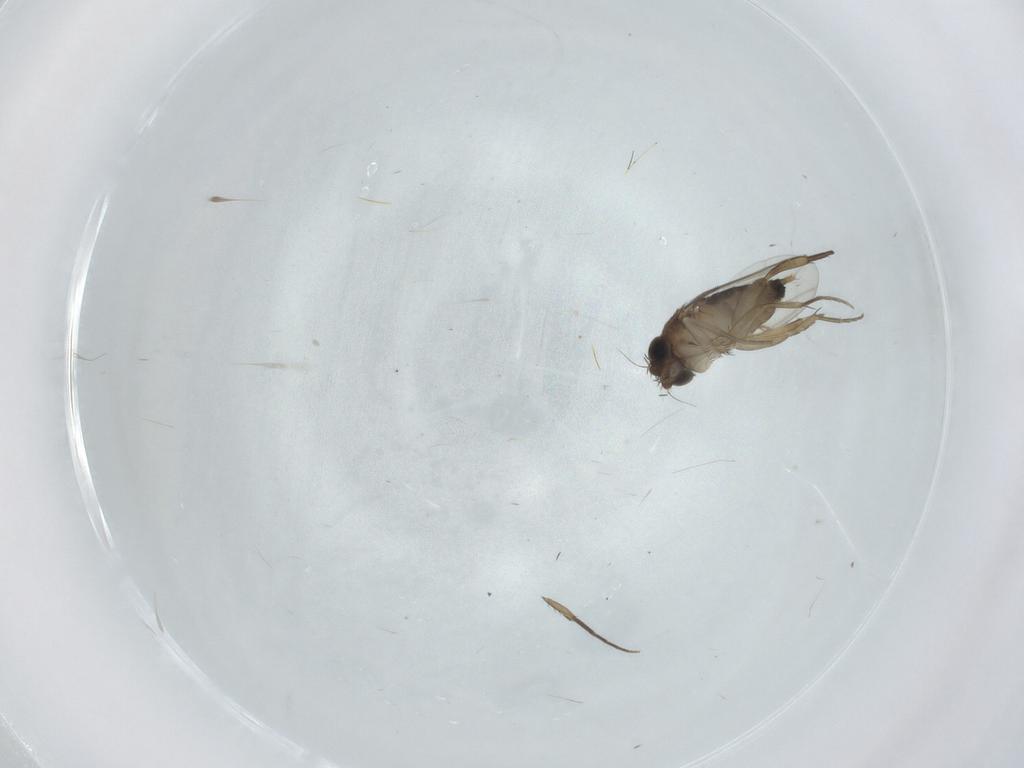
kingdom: Animalia
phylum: Arthropoda
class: Insecta
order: Diptera
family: Phoridae
